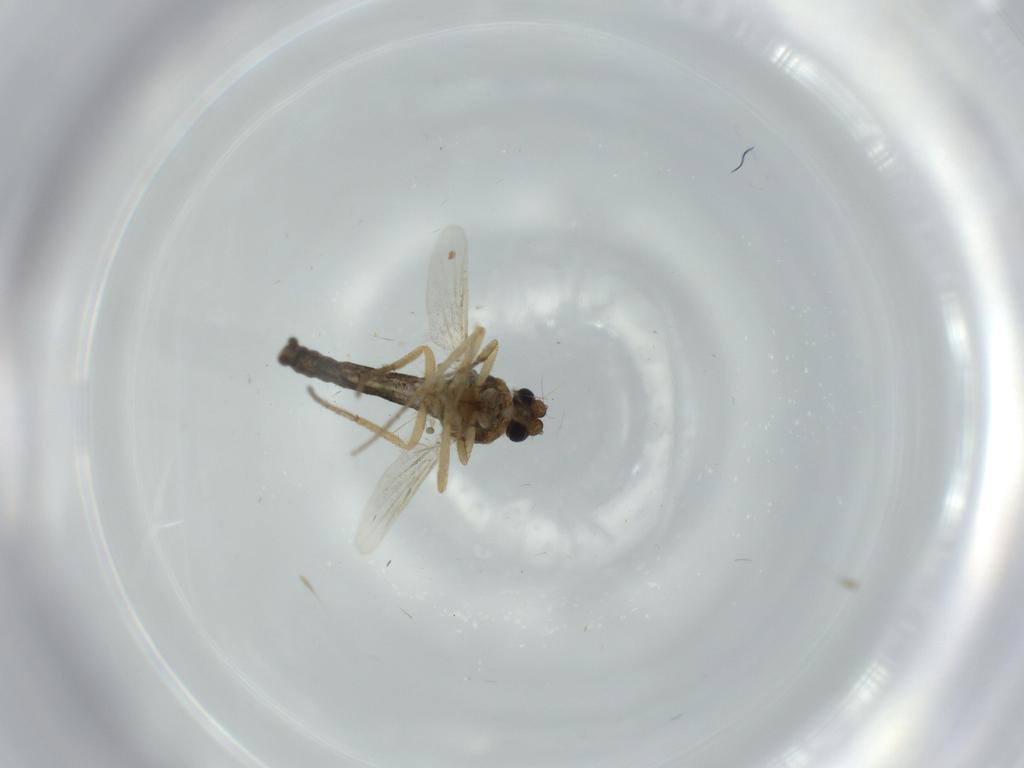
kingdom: Animalia
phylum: Arthropoda
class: Insecta
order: Diptera
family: Ceratopogonidae
